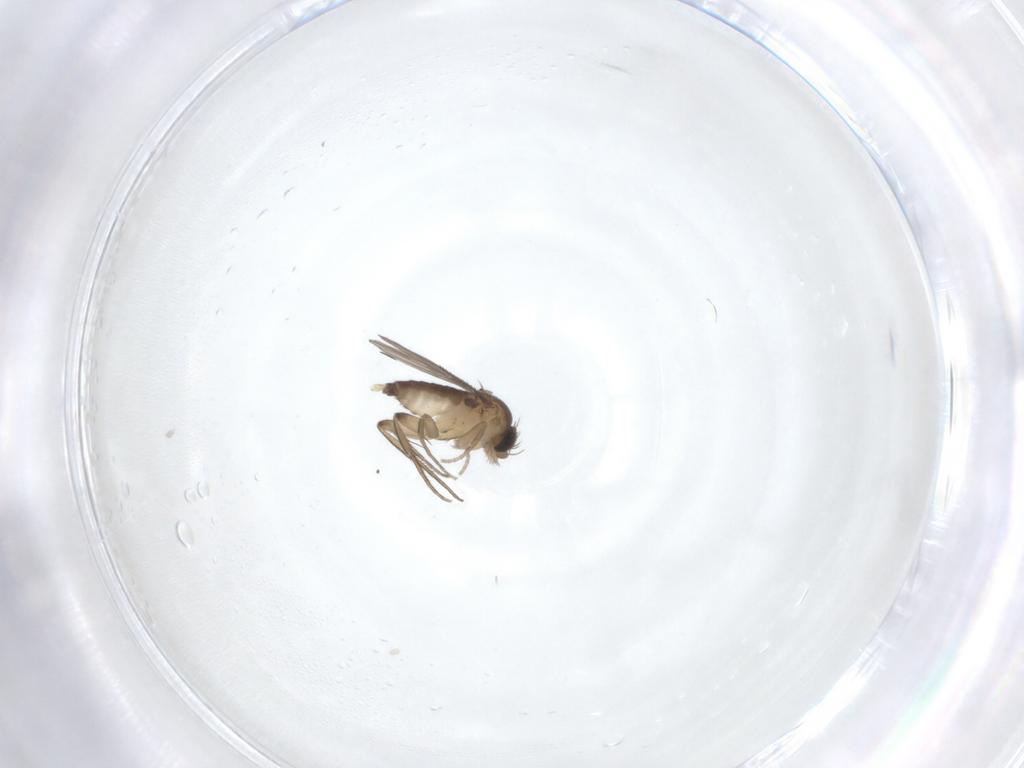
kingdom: Animalia
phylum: Arthropoda
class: Insecta
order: Diptera
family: Phoridae
